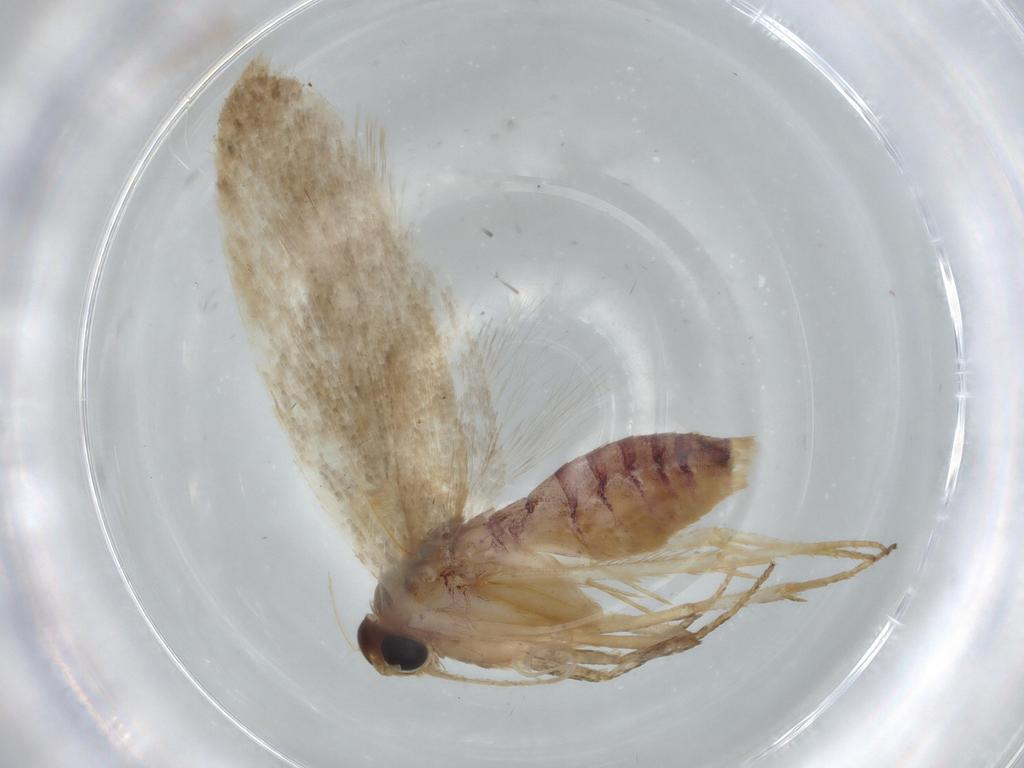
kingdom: Animalia
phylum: Arthropoda
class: Insecta
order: Lepidoptera
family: Coleophoridae
